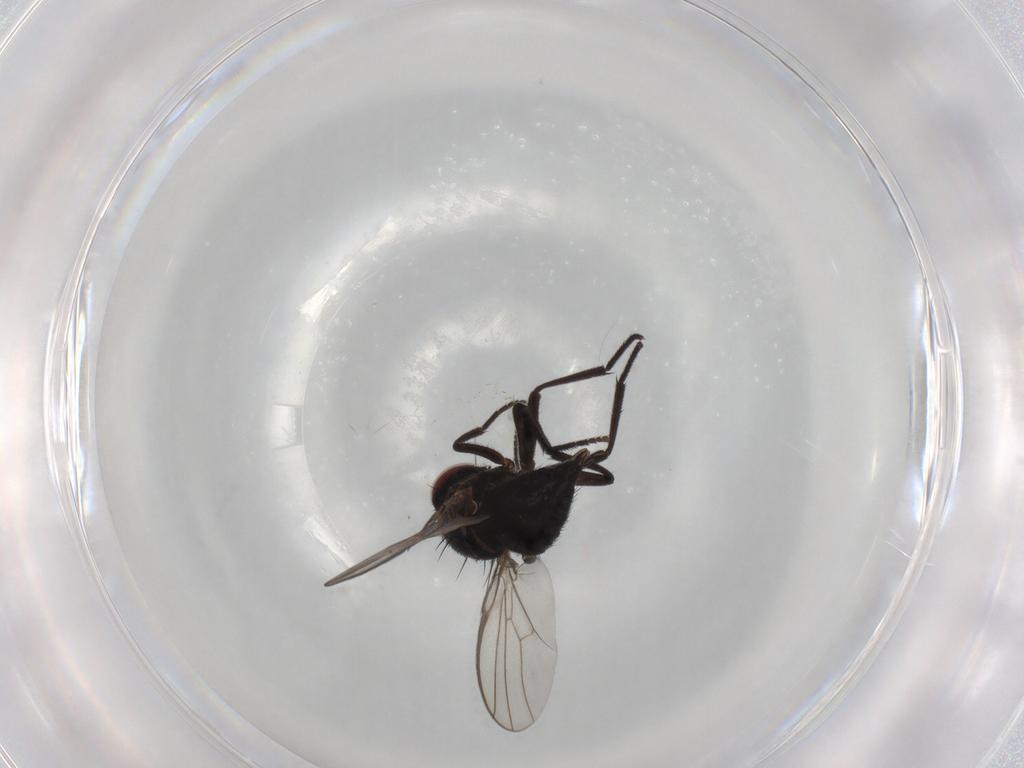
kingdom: Animalia
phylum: Arthropoda
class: Insecta
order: Diptera
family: Agromyzidae
